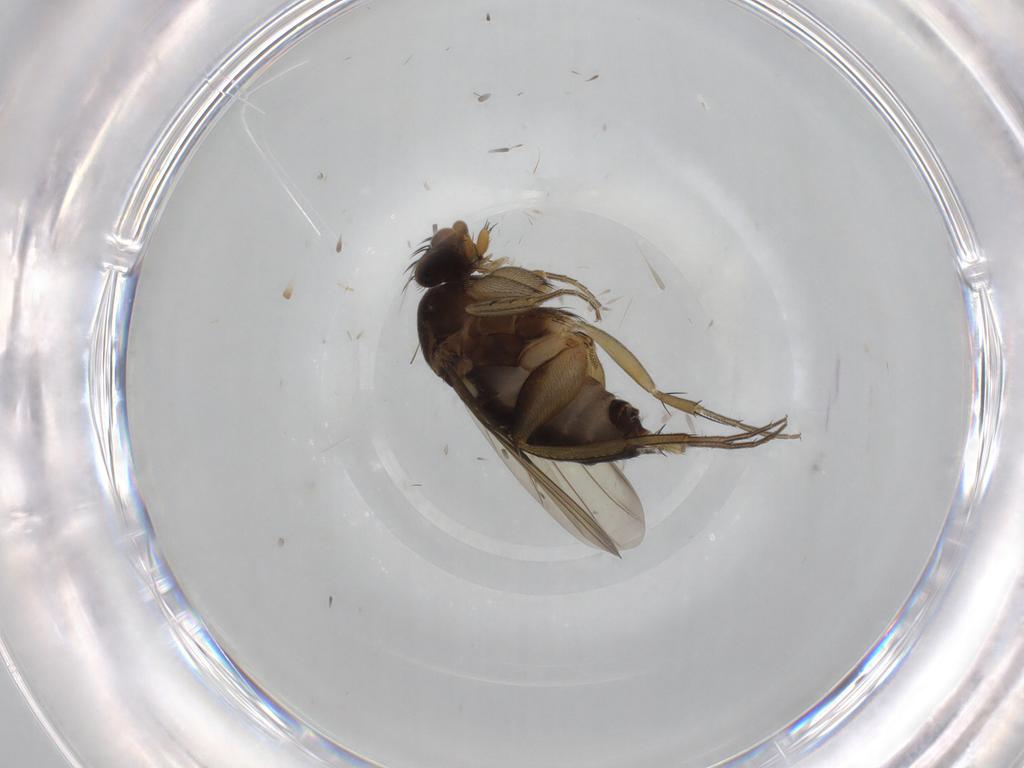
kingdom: Animalia
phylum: Arthropoda
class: Insecta
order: Diptera
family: Phoridae
